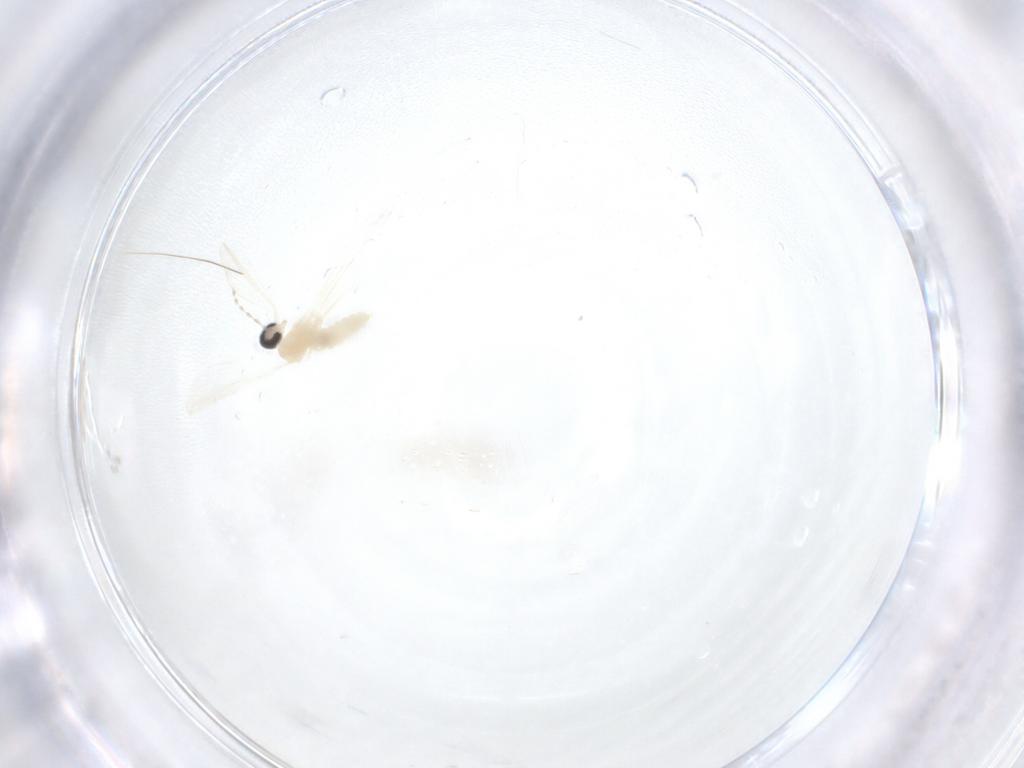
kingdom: Animalia
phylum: Arthropoda
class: Insecta
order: Diptera
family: Cecidomyiidae
